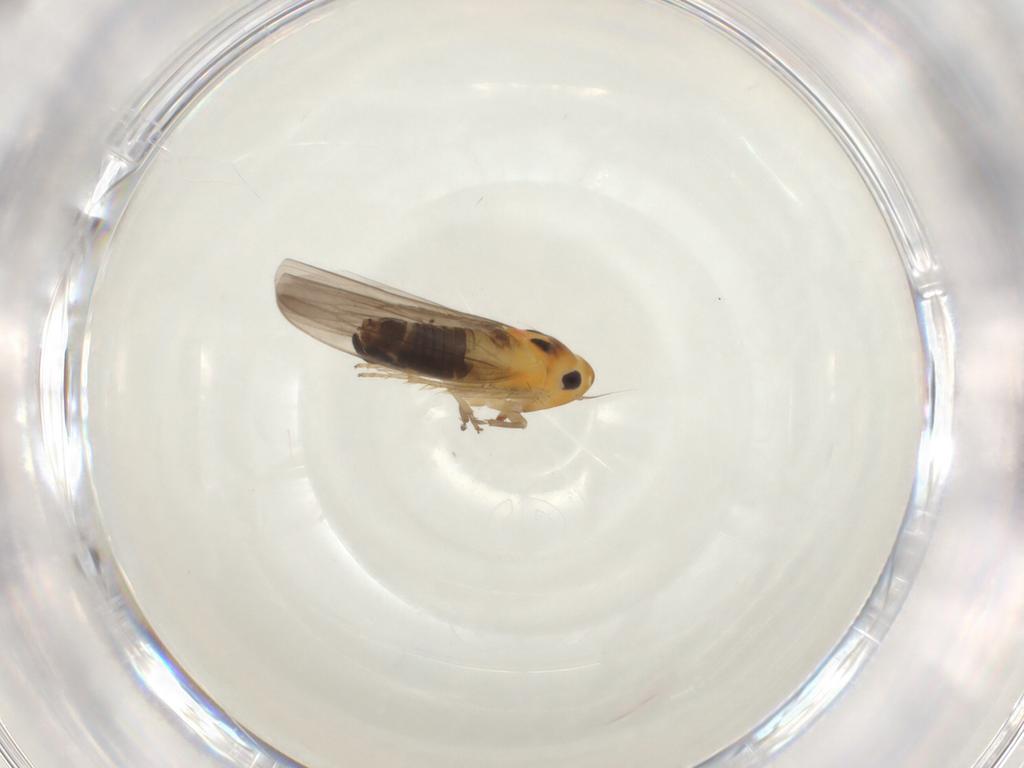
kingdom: Animalia
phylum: Arthropoda
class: Insecta
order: Hemiptera
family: Cicadellidae
